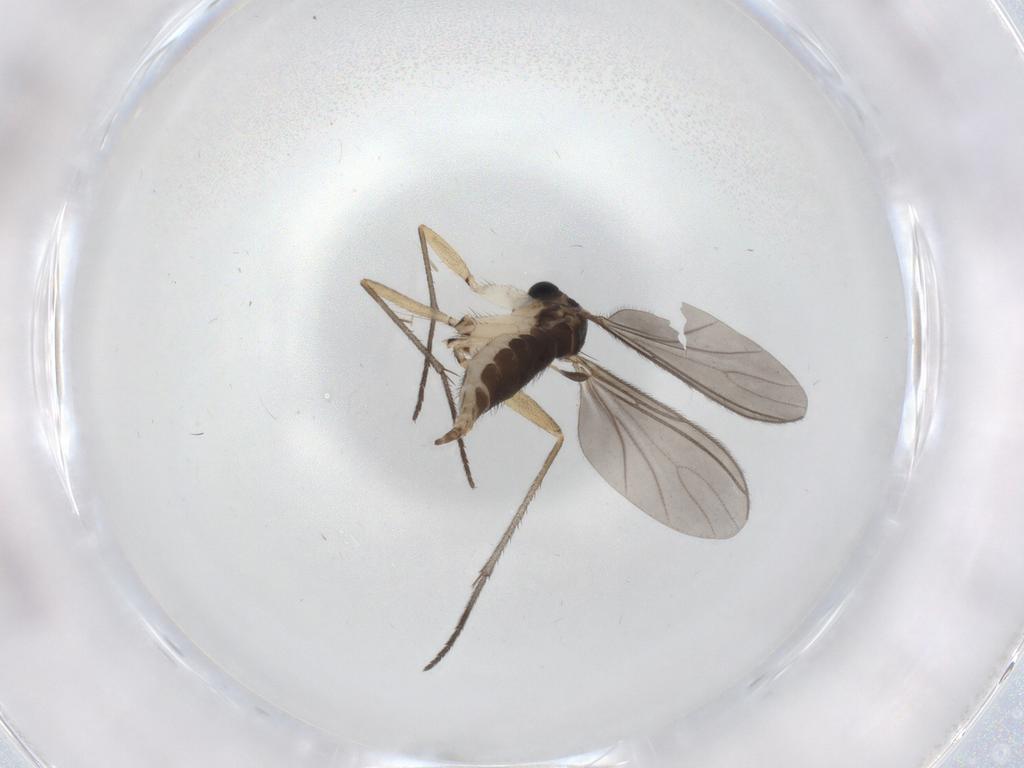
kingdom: Animalia
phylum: Arthropoda
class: Insecta
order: Diptera
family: Sciaridae
